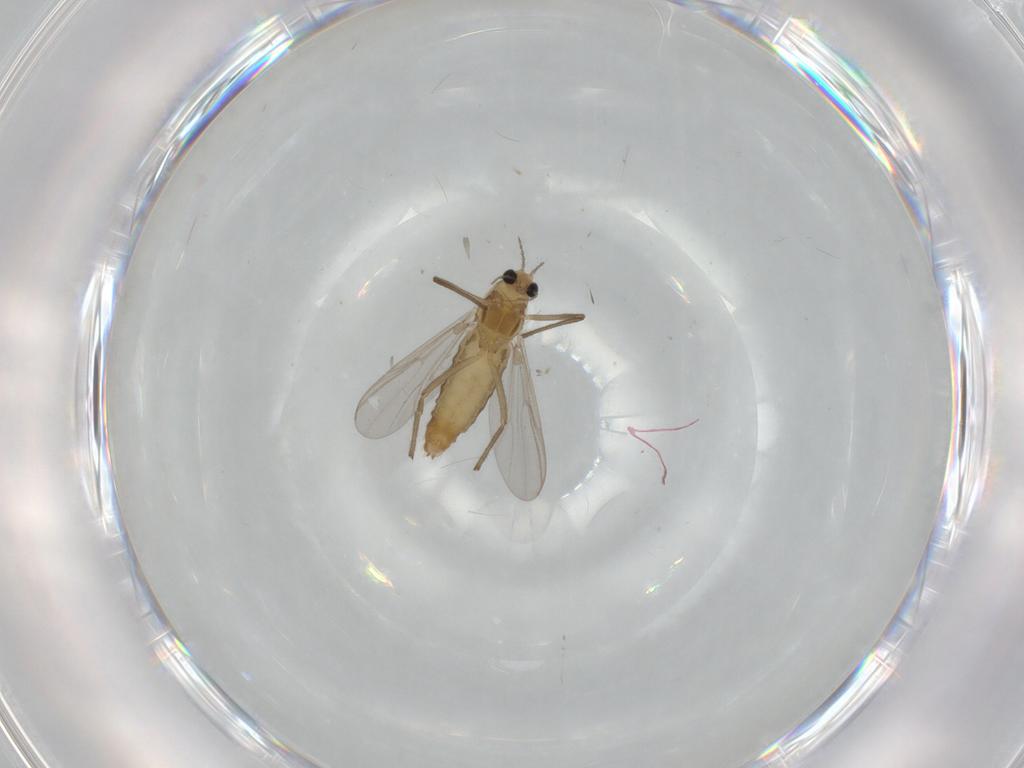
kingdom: Animalia
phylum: Arthropoda
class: Insecta
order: Diptera
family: Chironomidae
